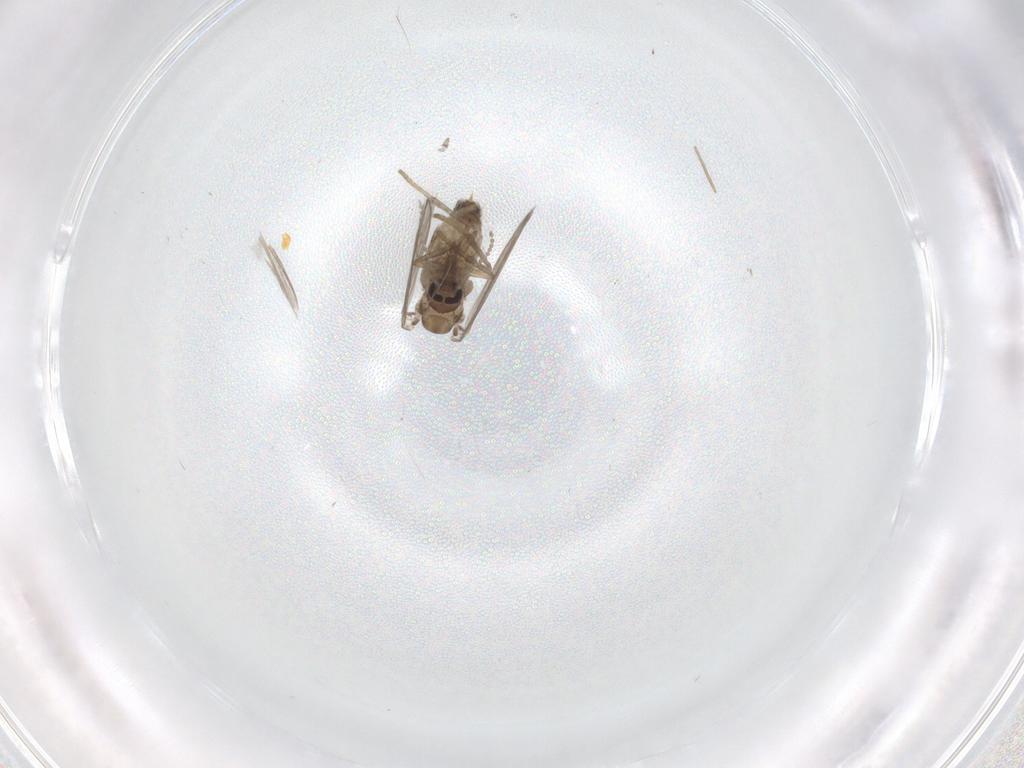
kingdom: Animalia
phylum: Arthropoda
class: Insecta
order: Diptera
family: Psychodidae
